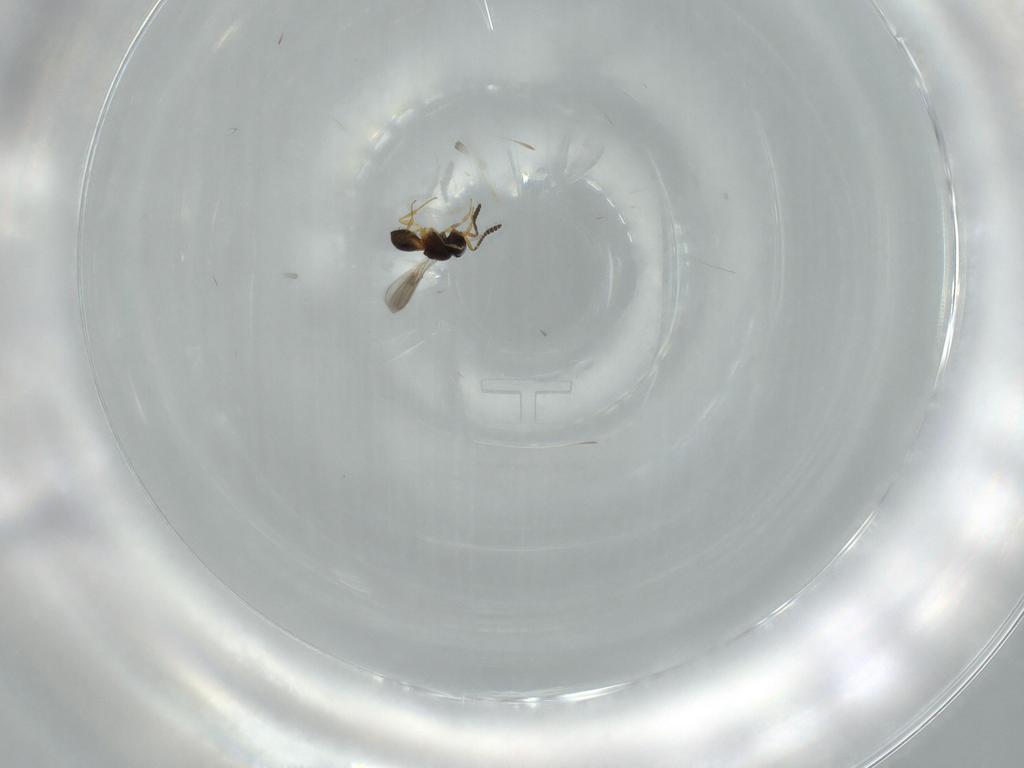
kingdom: Animalia
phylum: Arthropoda
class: Insecta
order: Hymenoptera
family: Scelionidae
